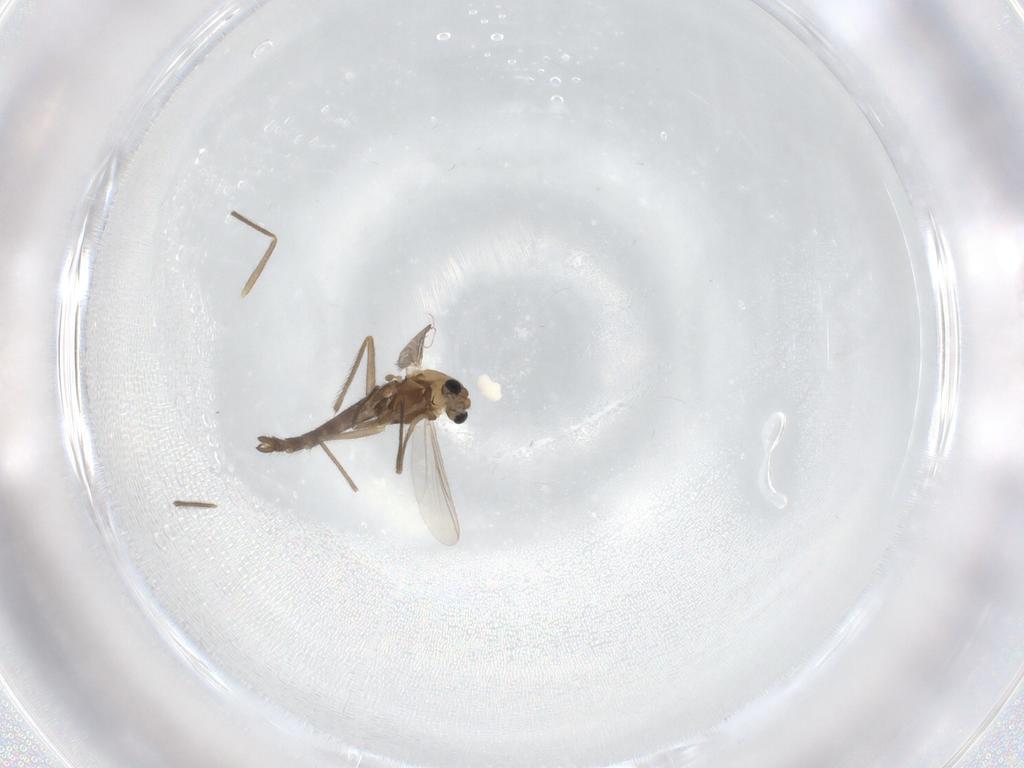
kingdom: Animalia
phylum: Arthropoda
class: Insecta
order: Diptera
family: Chironomidae
